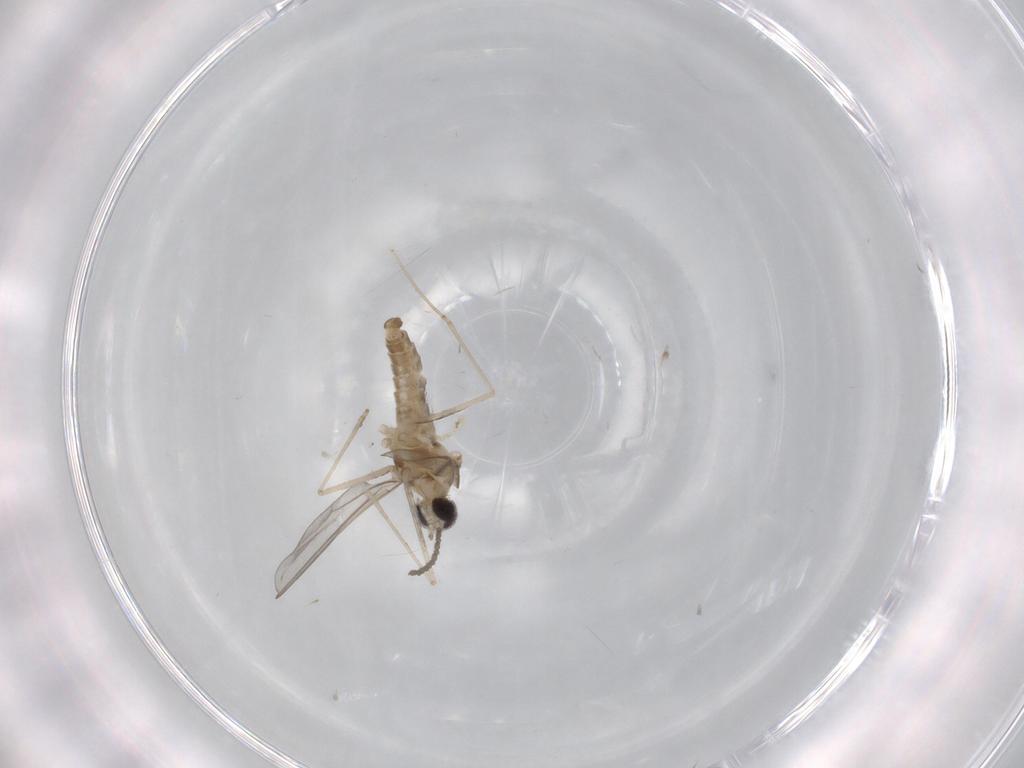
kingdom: Animalia
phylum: Arthropoda
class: Insecta
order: Diptera
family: Cecidomyiidae
